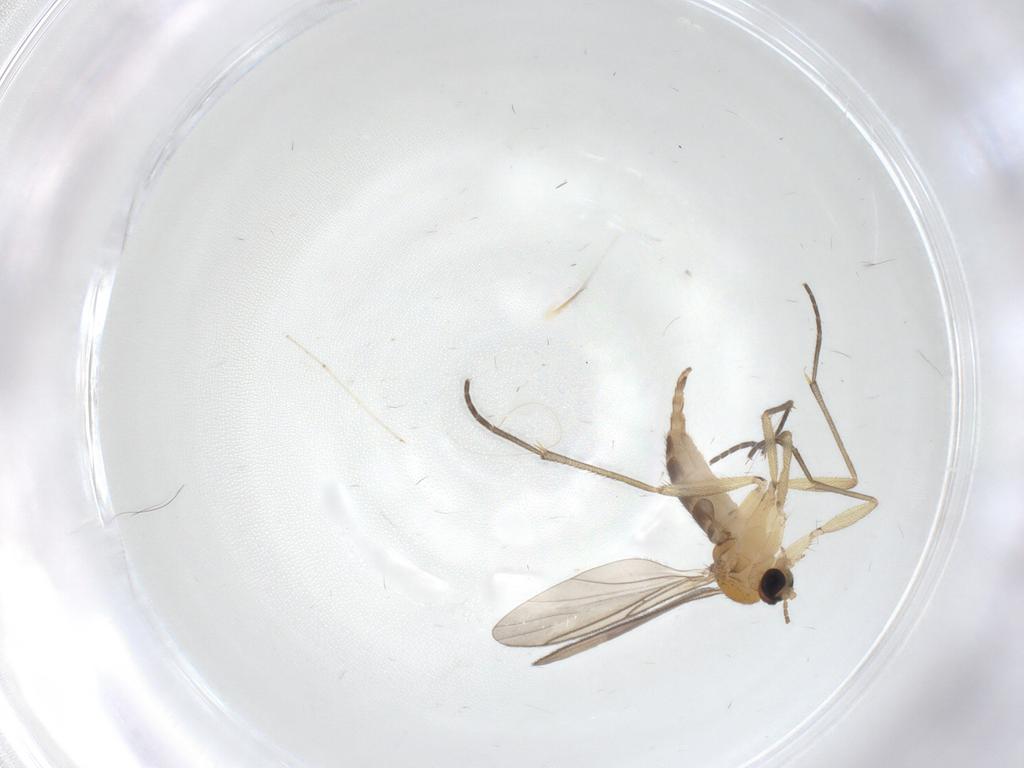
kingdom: Animalia
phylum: Arthropoda
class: Insecta
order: Diptera
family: Sciaridae
